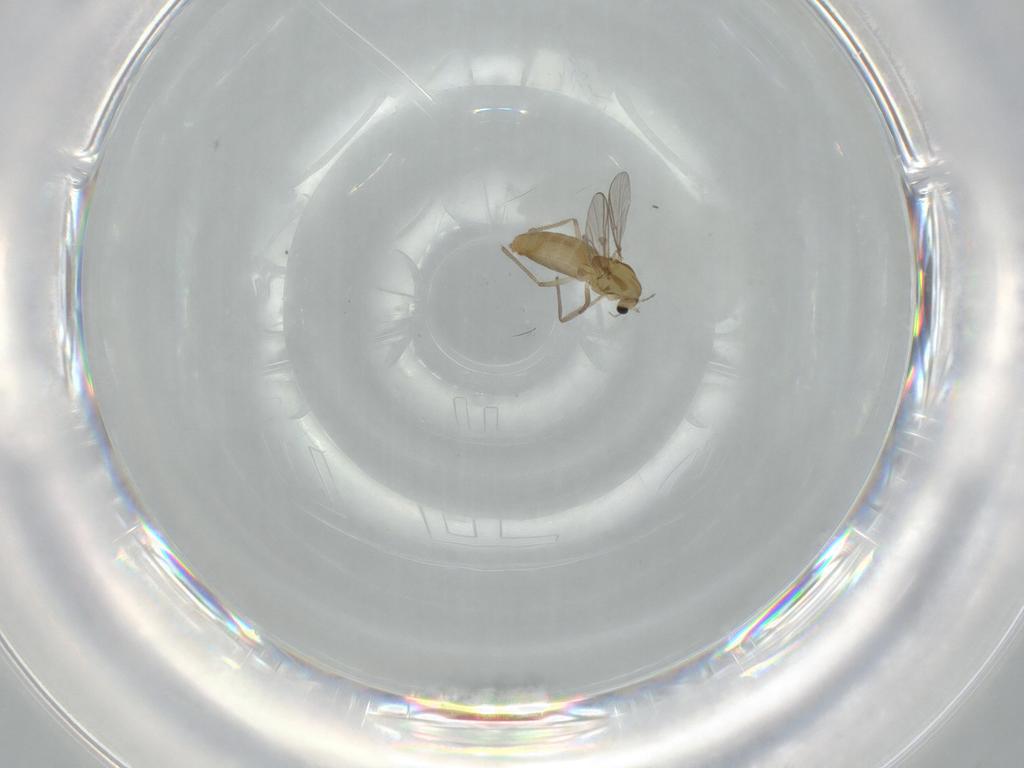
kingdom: Animalia
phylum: Arthropoda
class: Insecta
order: Diptera
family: Chironomidae
